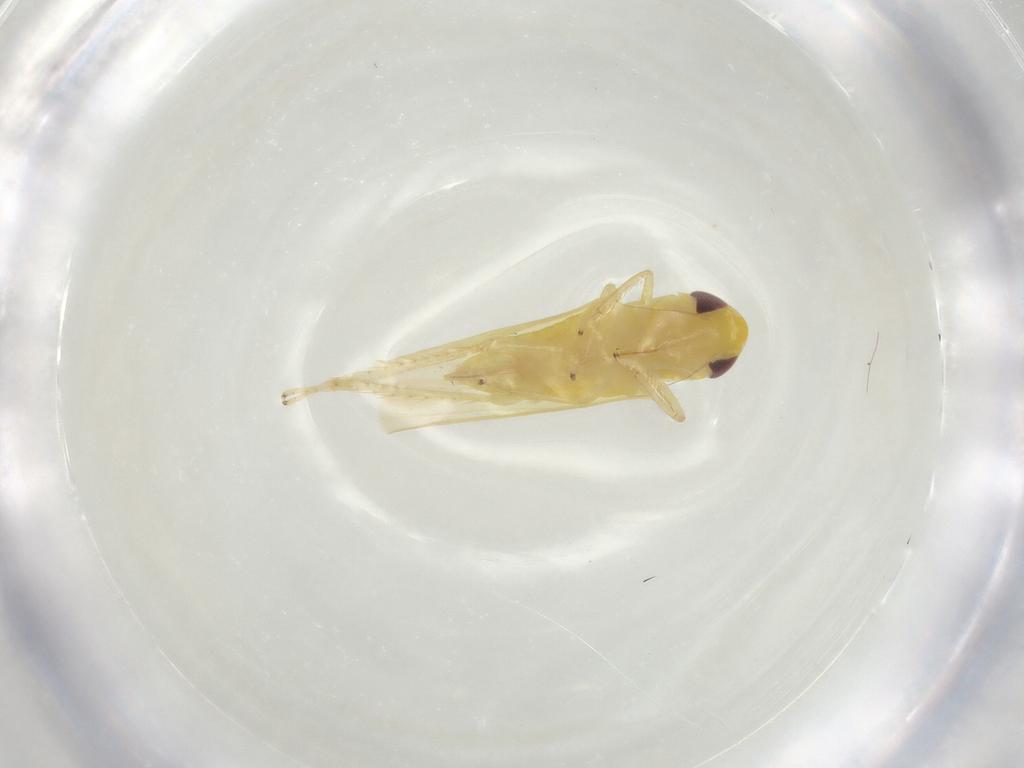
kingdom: Animalia
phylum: Arthropoda
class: Insecta
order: Hemiptera
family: Cicadellidae
